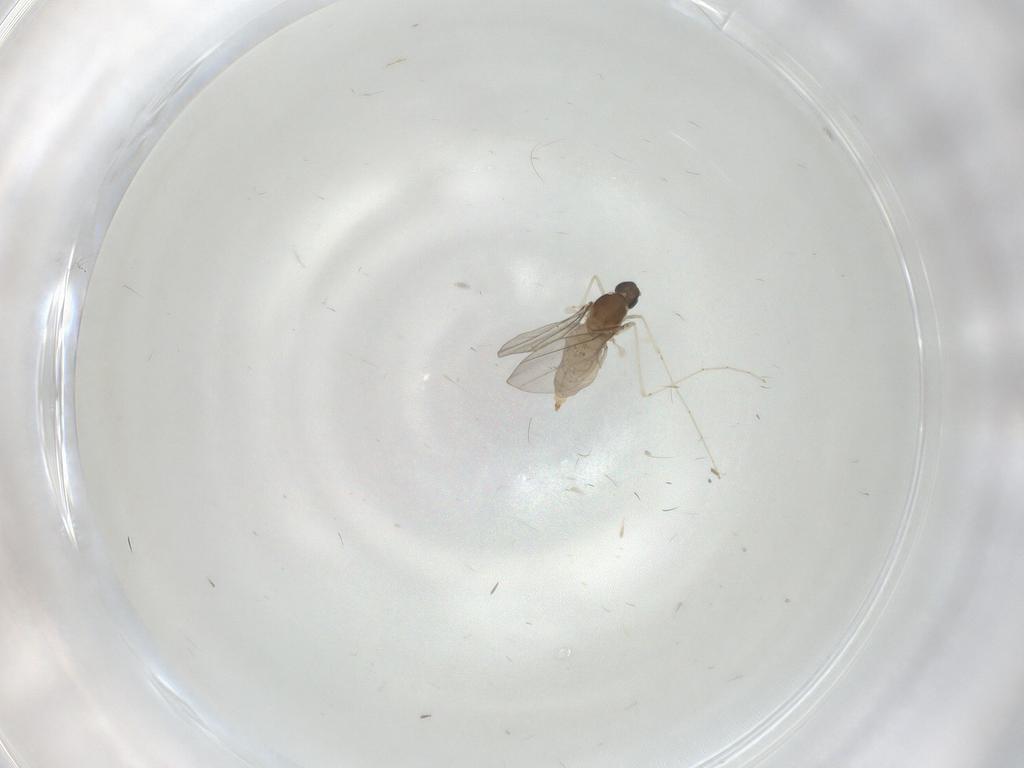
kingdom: Animalia
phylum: Arthropoda
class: Insecta
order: Diptera
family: Cecidomyiidae
